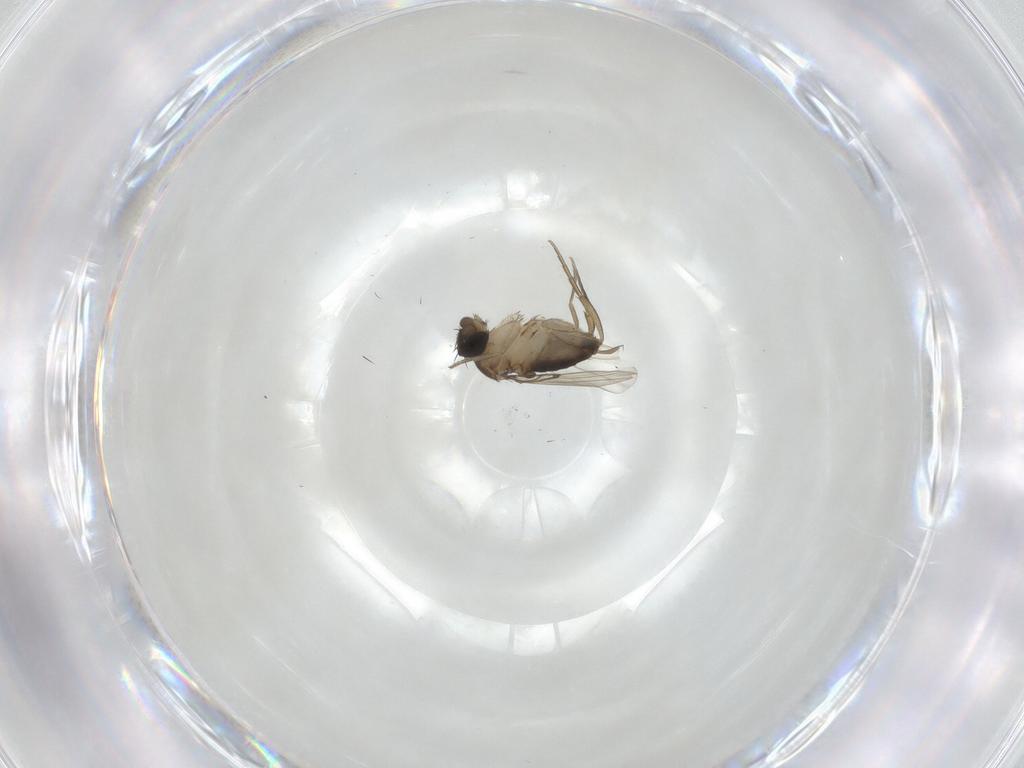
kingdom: Animalia
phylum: Arthropoda
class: Insecta
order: Diptera
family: Phoridae
